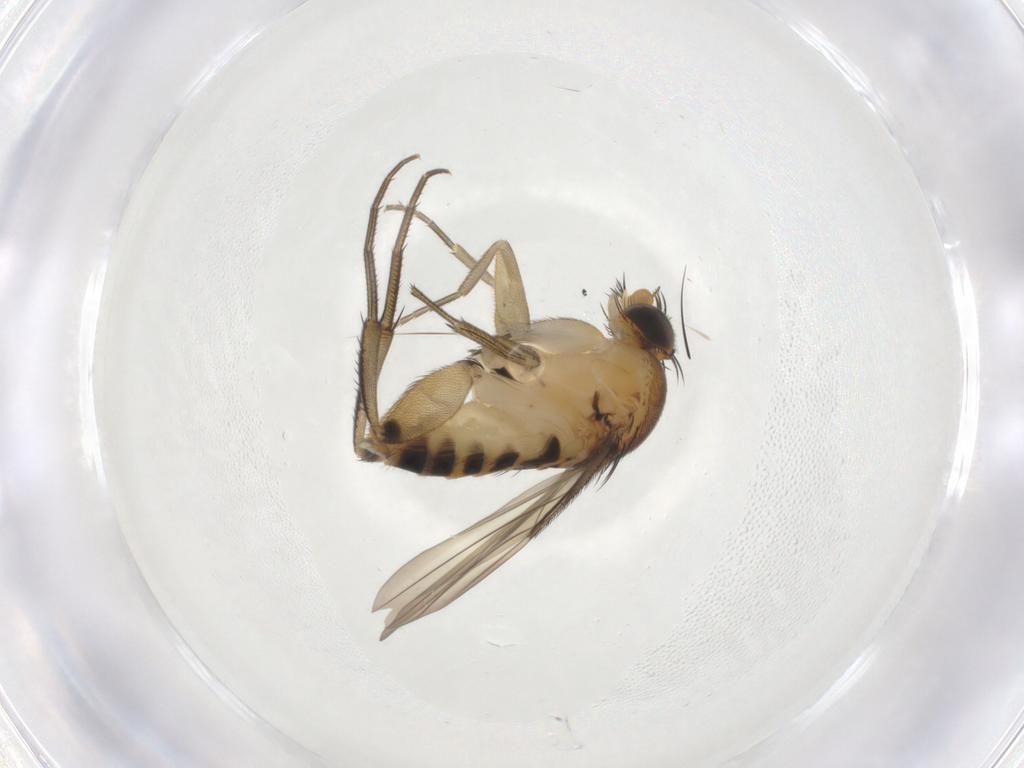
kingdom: Animalia
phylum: Arthropoda
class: Insecta
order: Diptera
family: Phoridae
